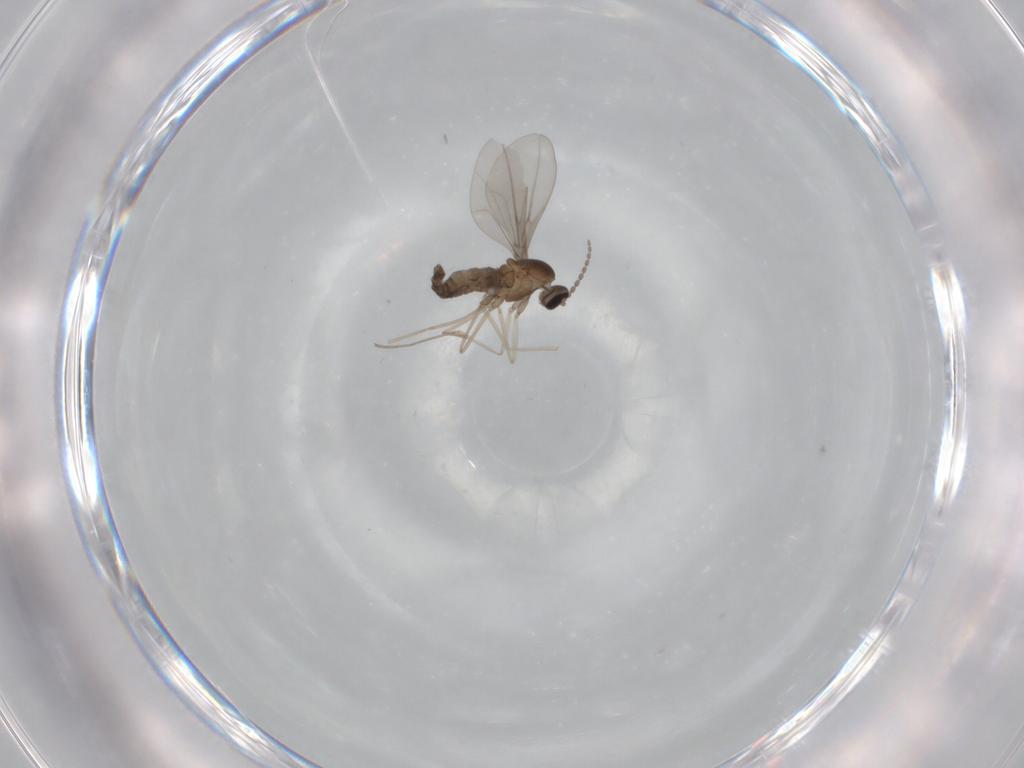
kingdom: Animalia
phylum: Arthropoda
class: Insecta
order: Diptera
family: Cecidomyiidae
